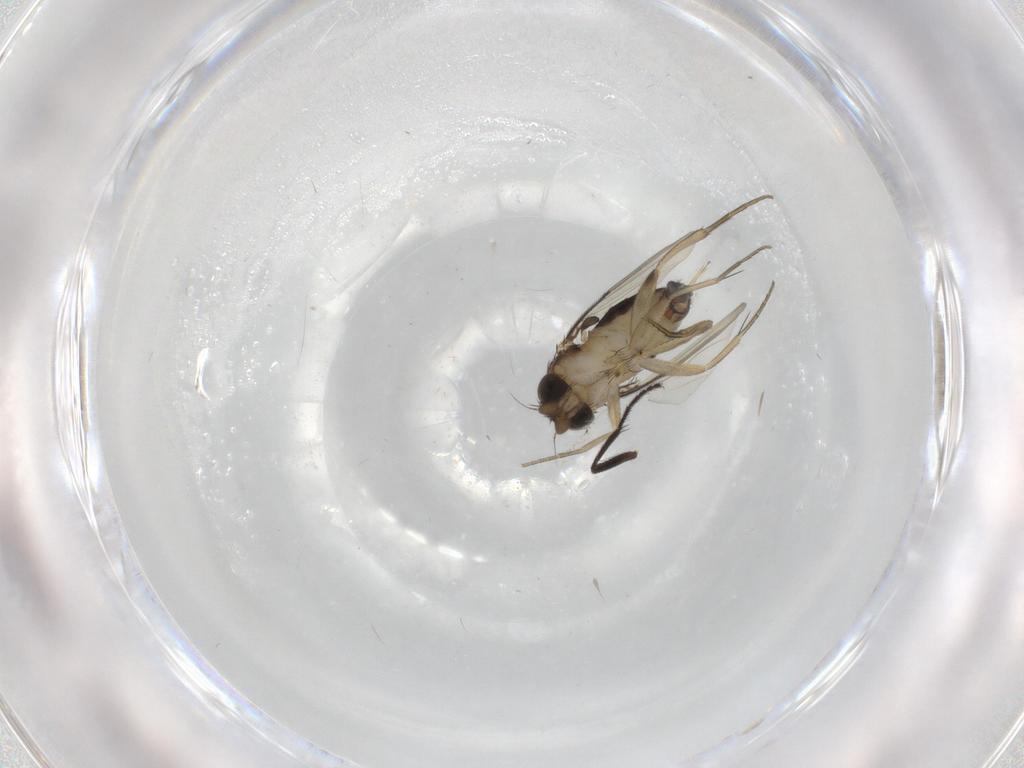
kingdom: Animalia
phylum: Arthropoda
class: Insecta
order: Diptera
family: Phoridae
